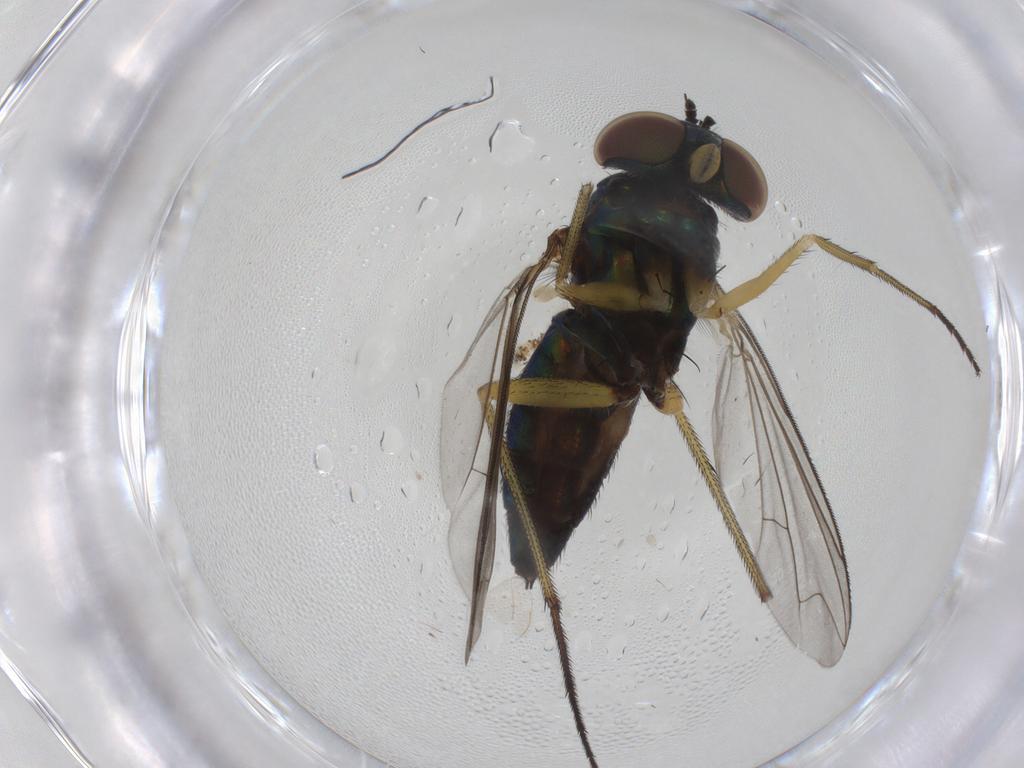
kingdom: Animalia
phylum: Arthropoda
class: Insecta
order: Diptera
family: Dolichopodidae
